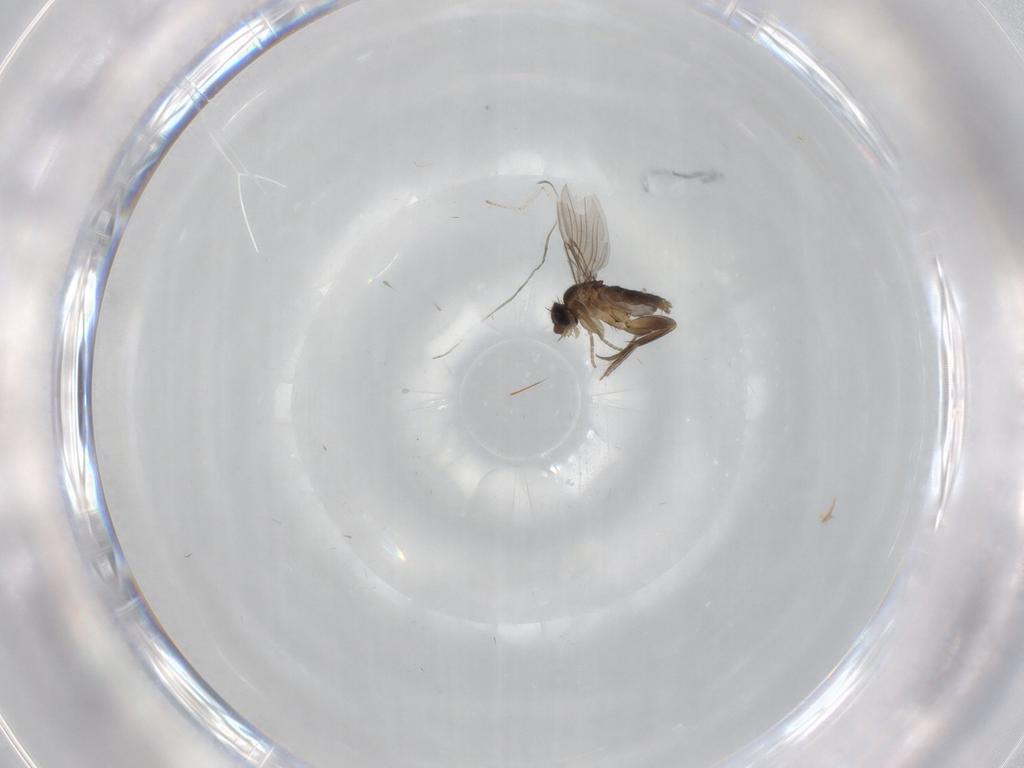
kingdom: Animalia
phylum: Arthropoda
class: Insecta
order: Diptera
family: Phoridae
